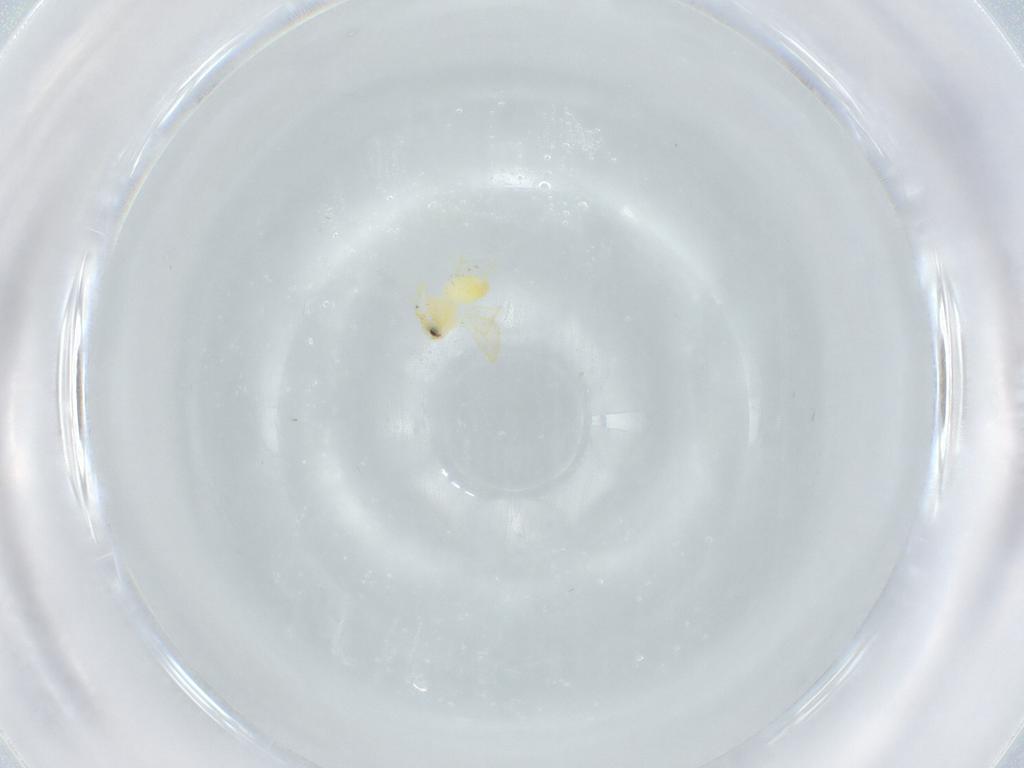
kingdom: Animalia
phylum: Arthropoda
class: Insecta
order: Hemiptera
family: Aleyrodidae
